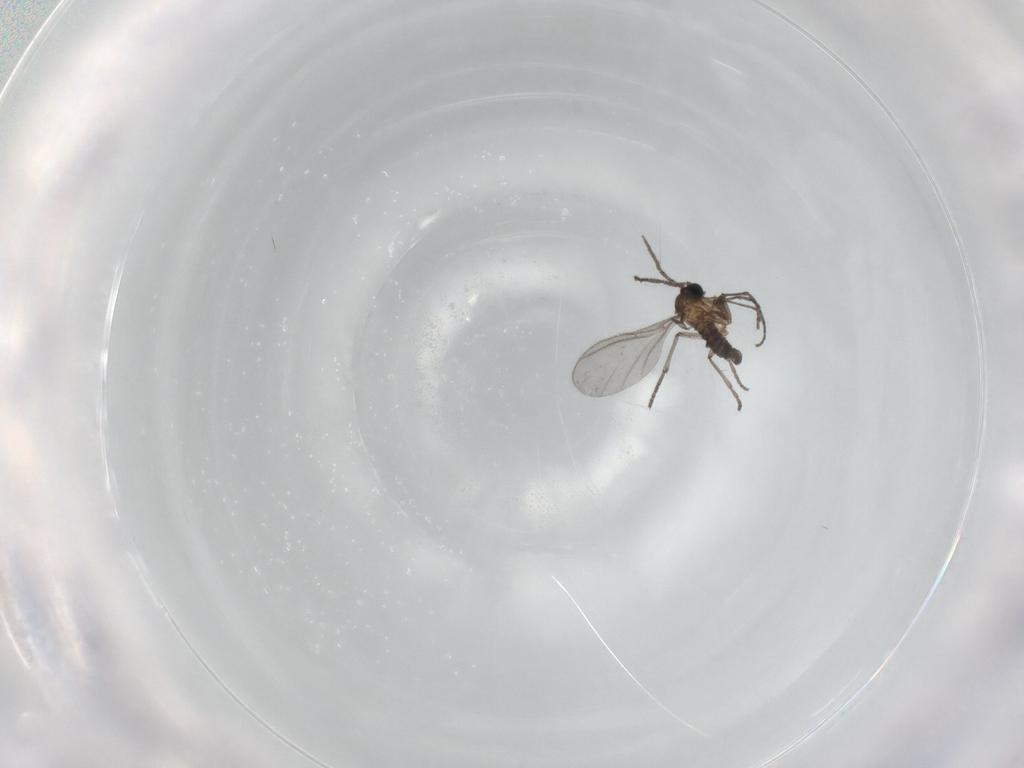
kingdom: Animalia
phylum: Arthropoda
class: Insecta
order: Diptera
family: Sciaridae
